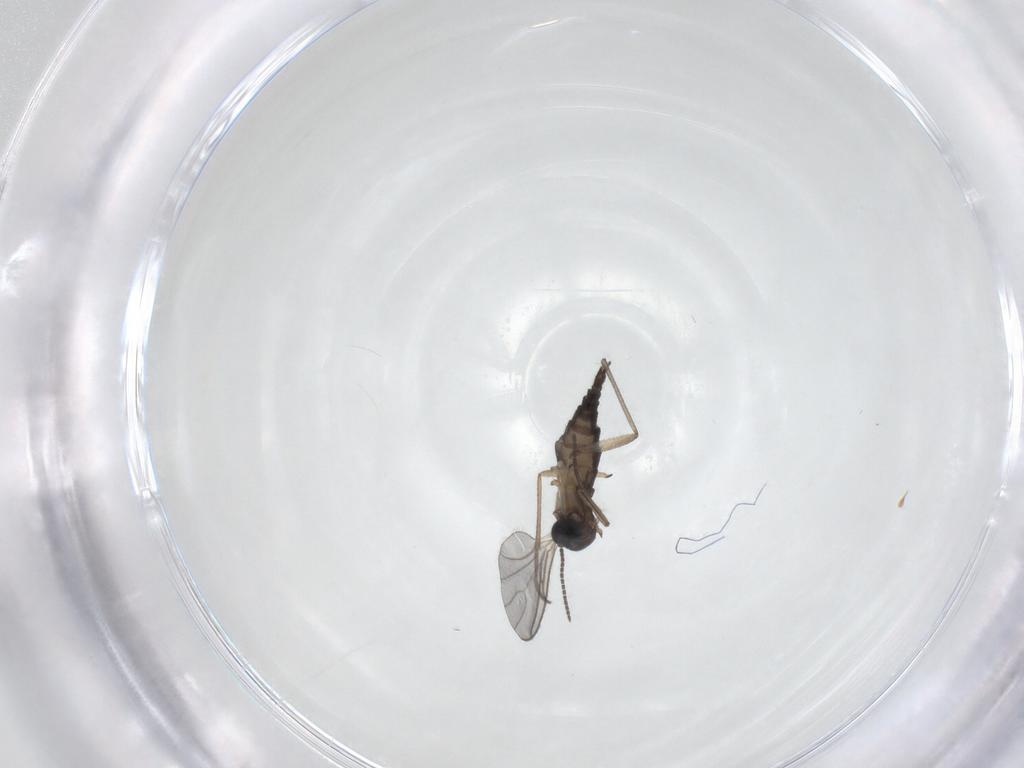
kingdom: Animalia
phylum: Arthropoda
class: Insecta
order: Diptera
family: Sciaridae
